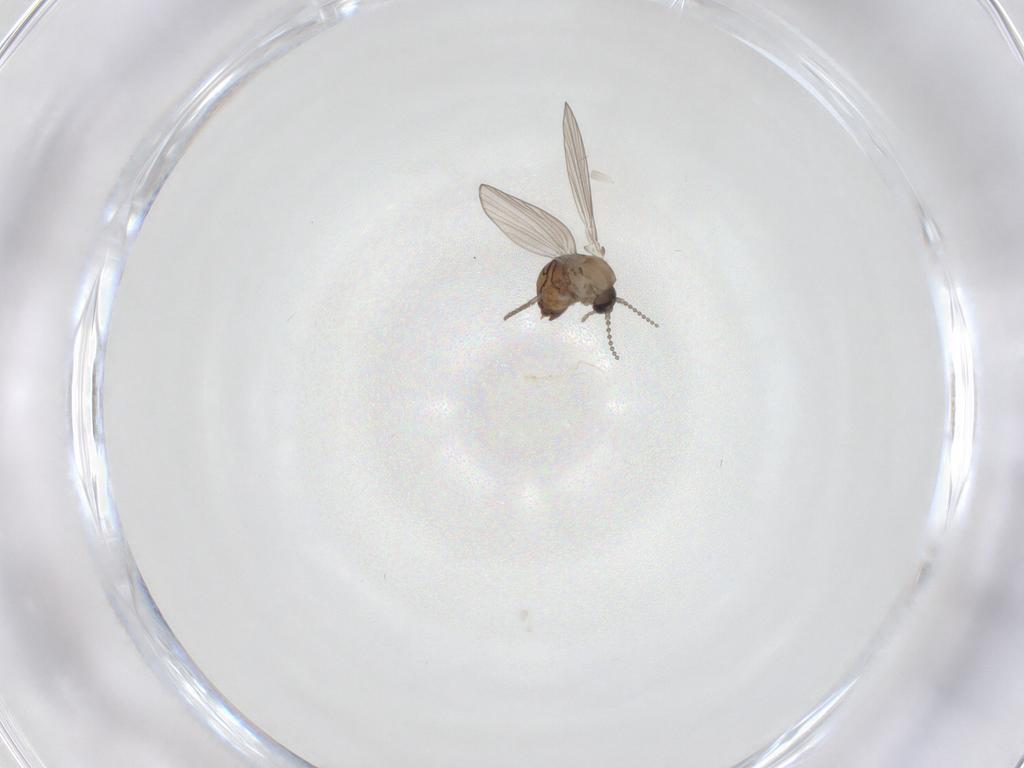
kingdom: Animalia
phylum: Arthropoda
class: Insecta
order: Diptera
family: Psychodidae
